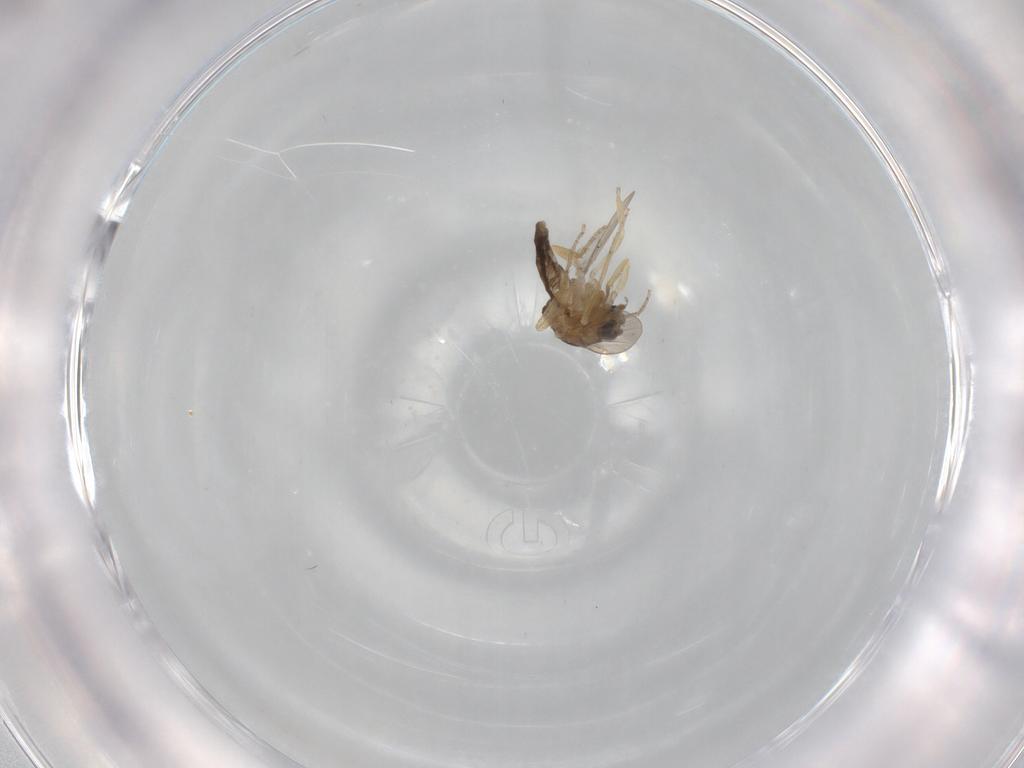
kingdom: Animalia
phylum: Arthropoda
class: Insecta
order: Diptera
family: Ceratopogonidae
